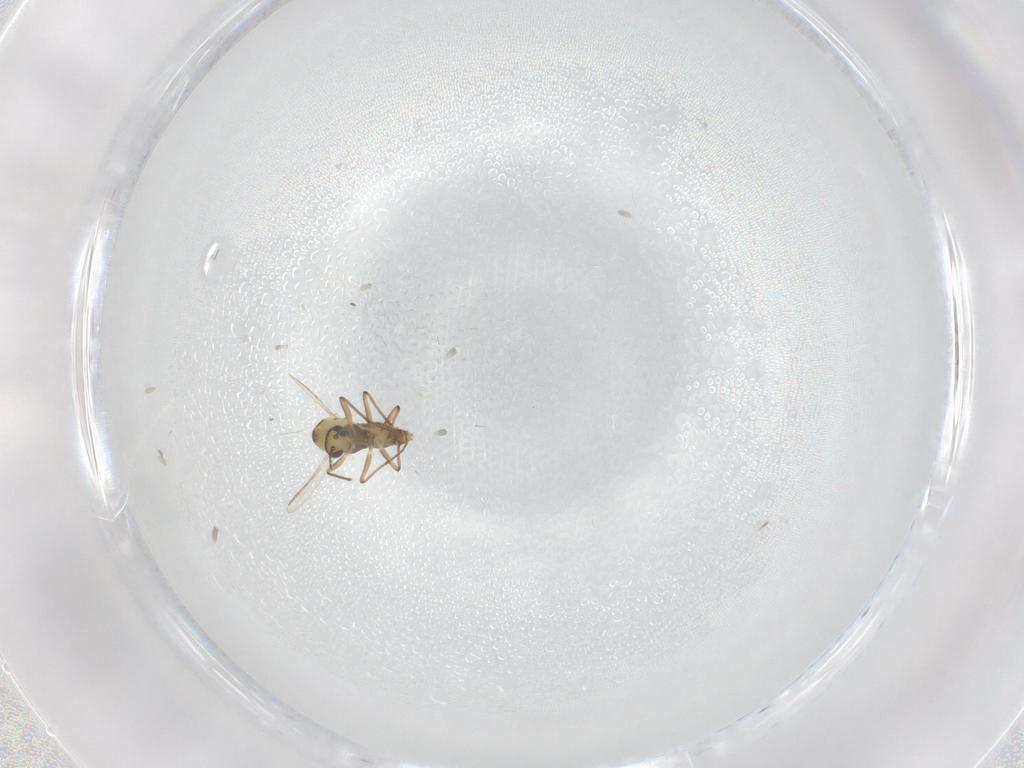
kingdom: Animalia
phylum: Arthropoda
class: Insecta
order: Diptera
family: Chironomidae
